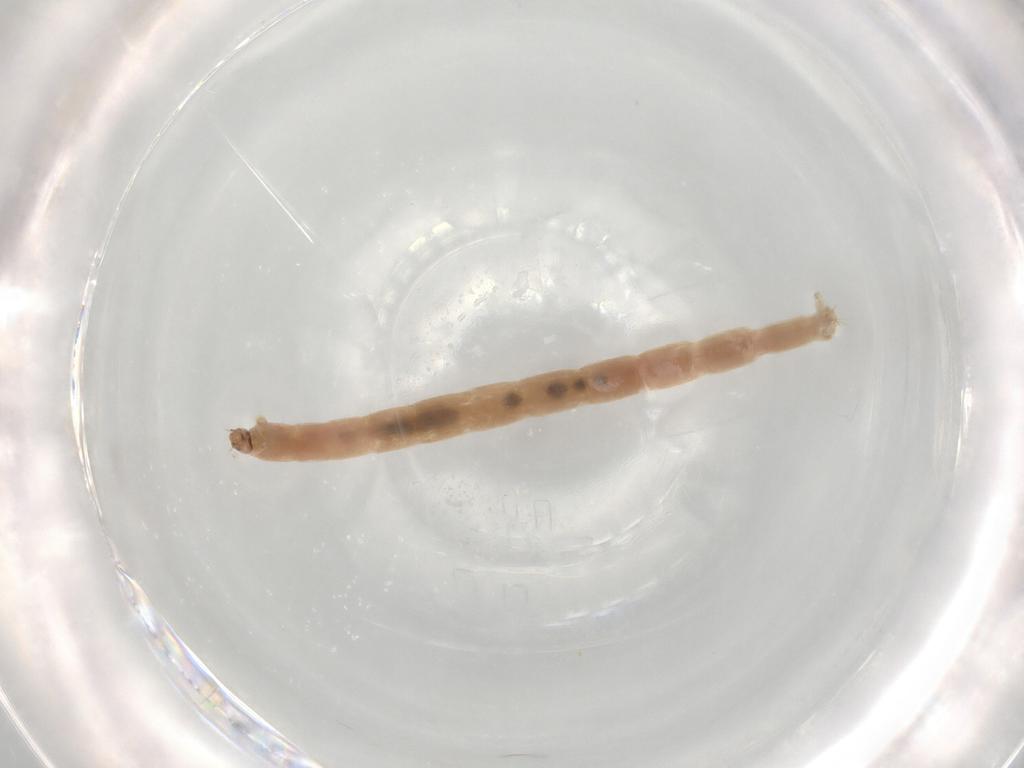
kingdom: Animalia
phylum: Arthropoda
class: Insecta
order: Diptera
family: Chironomidae
